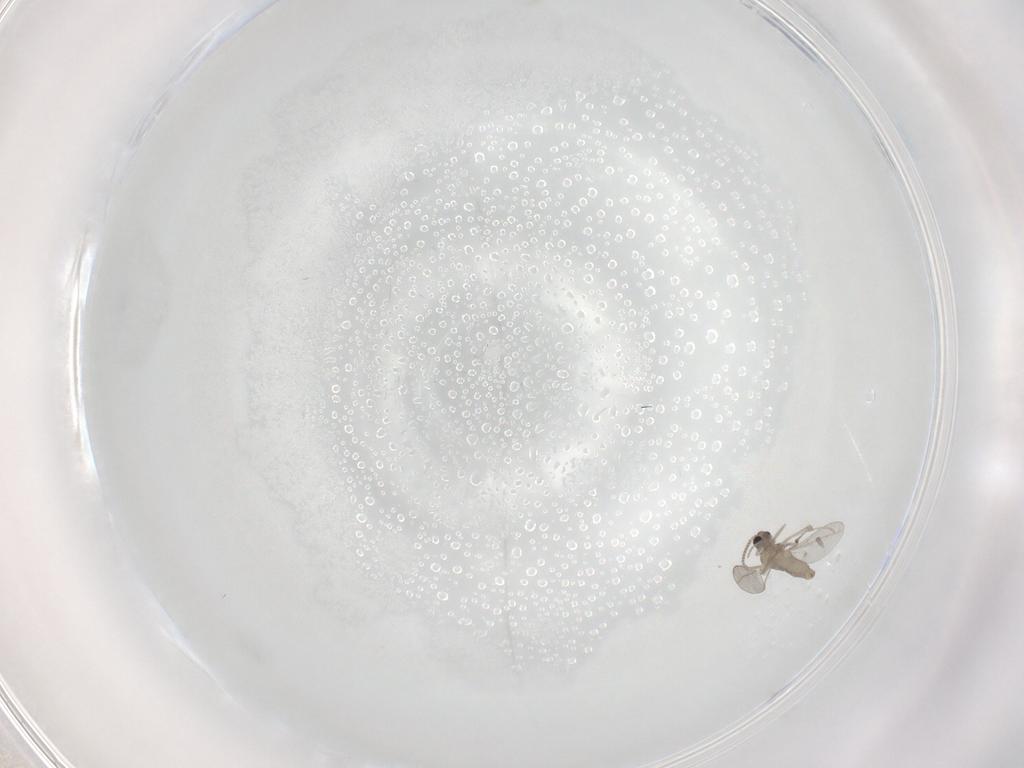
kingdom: Animalia
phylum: Arthropoda
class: Insecta
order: Diptera
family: Cecidomyiidae
